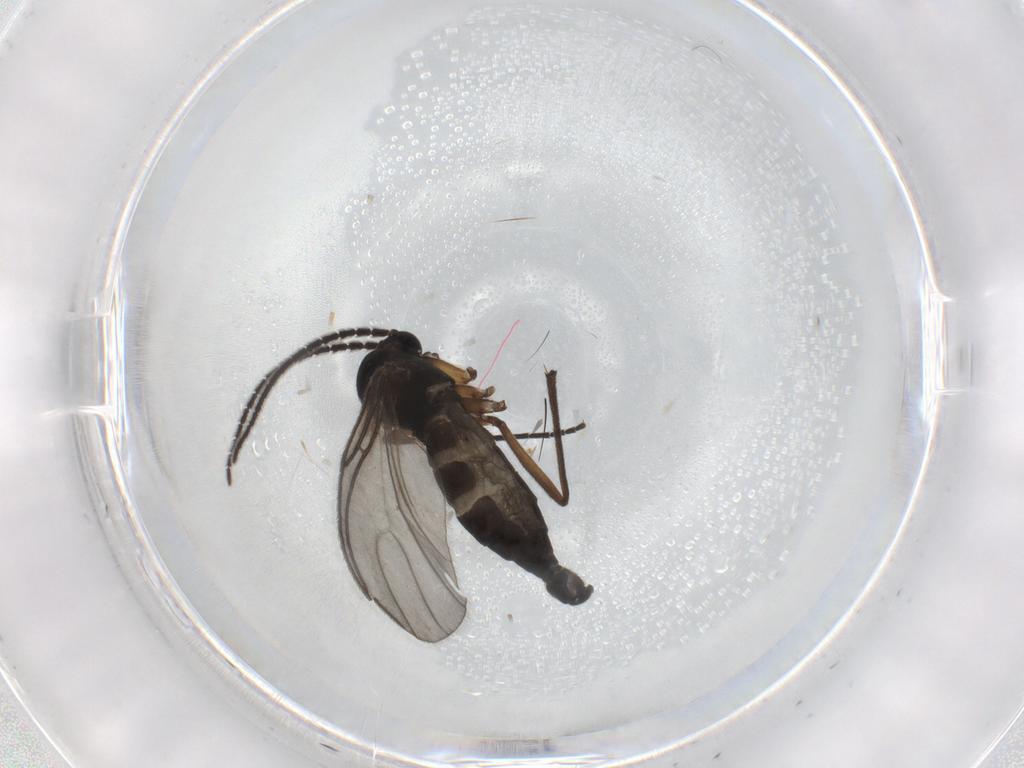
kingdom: Animalia
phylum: Arthropoda
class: Insecta
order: Diptera
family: Sciaridae
